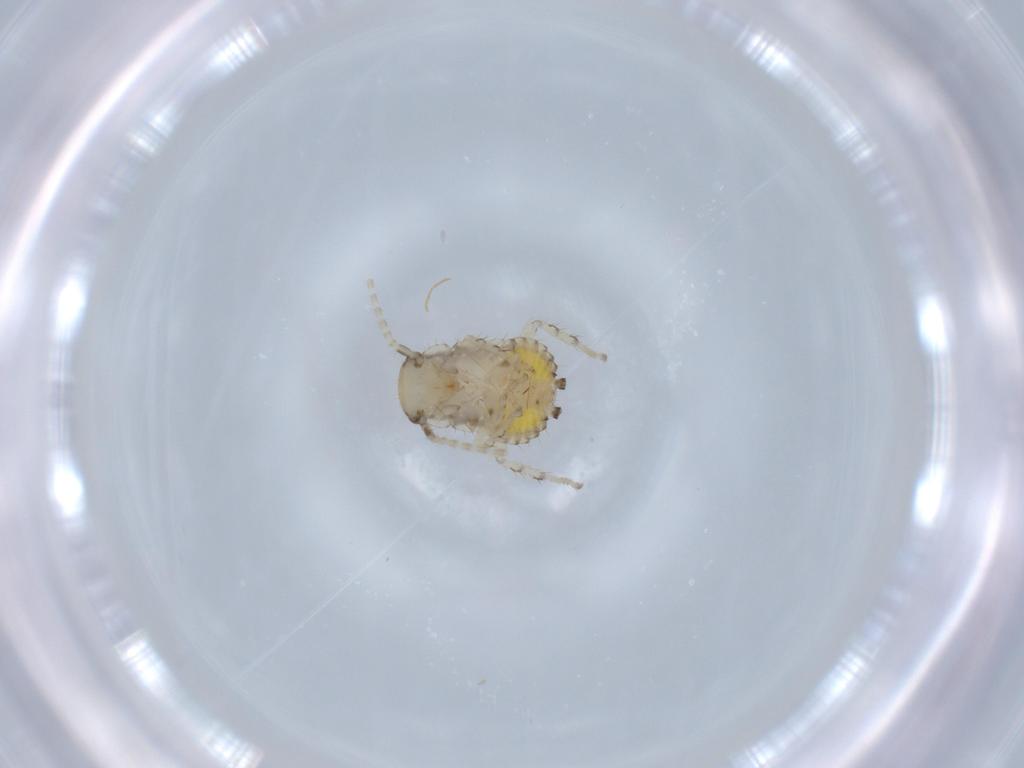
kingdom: Animalia
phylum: Arthropoda
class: Insecta
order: Blattodea
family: Ectobiidae
